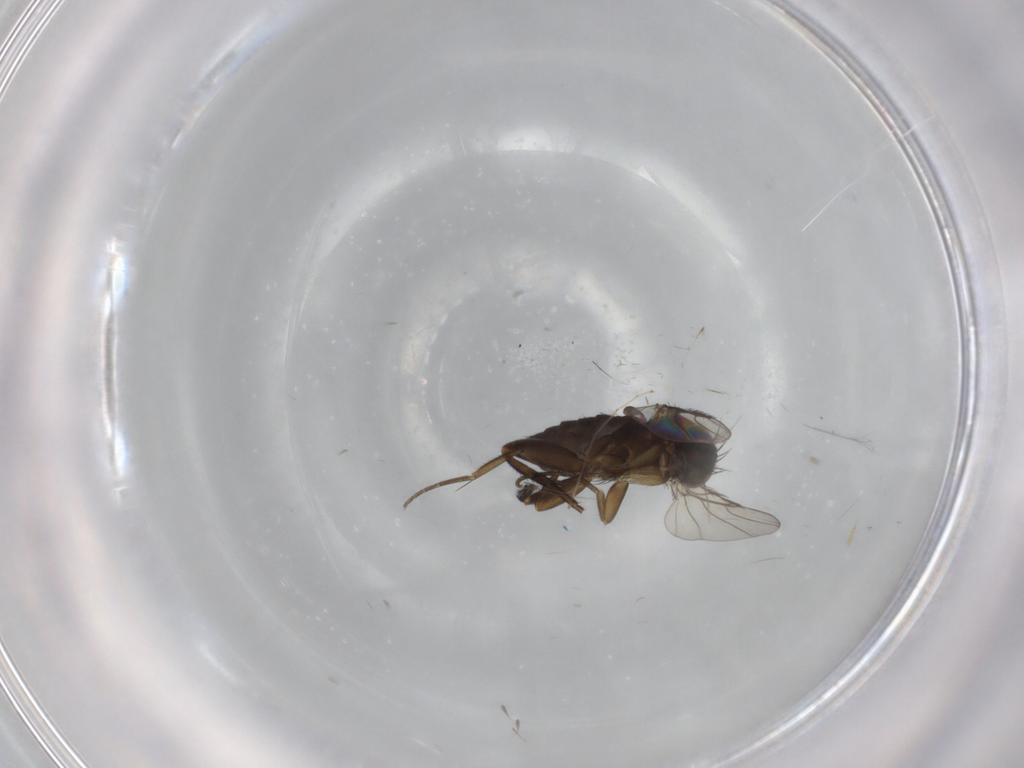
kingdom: Animalia
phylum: Arthropoda
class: Insecta
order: Diptera
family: Phoridae
